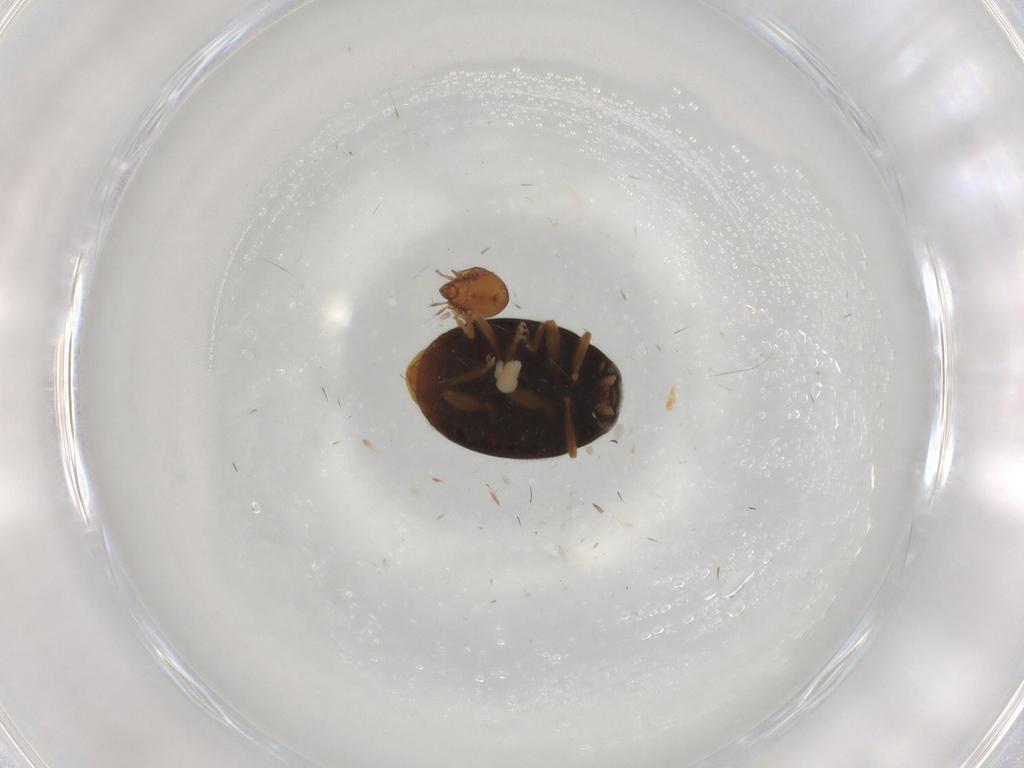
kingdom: Animalia
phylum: Arthropoda
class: Insecta
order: Coleoptera
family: Coccinellidae
